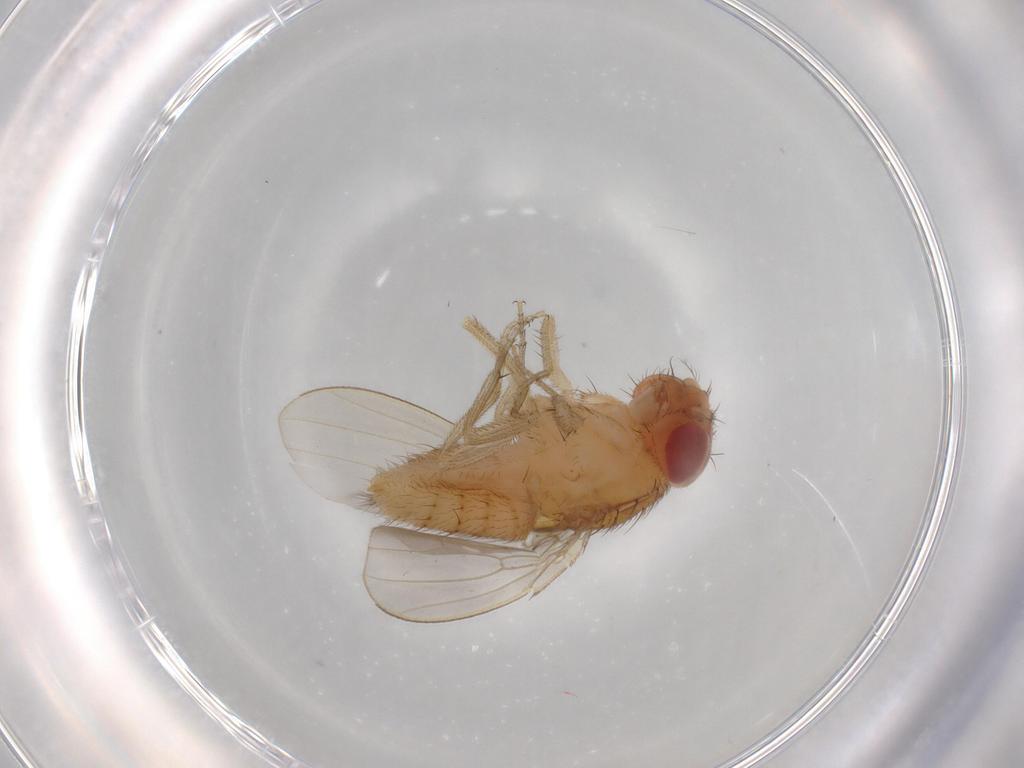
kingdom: Animalia
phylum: Arthropoda
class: Insecta
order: Diptera
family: Drosophilidae
